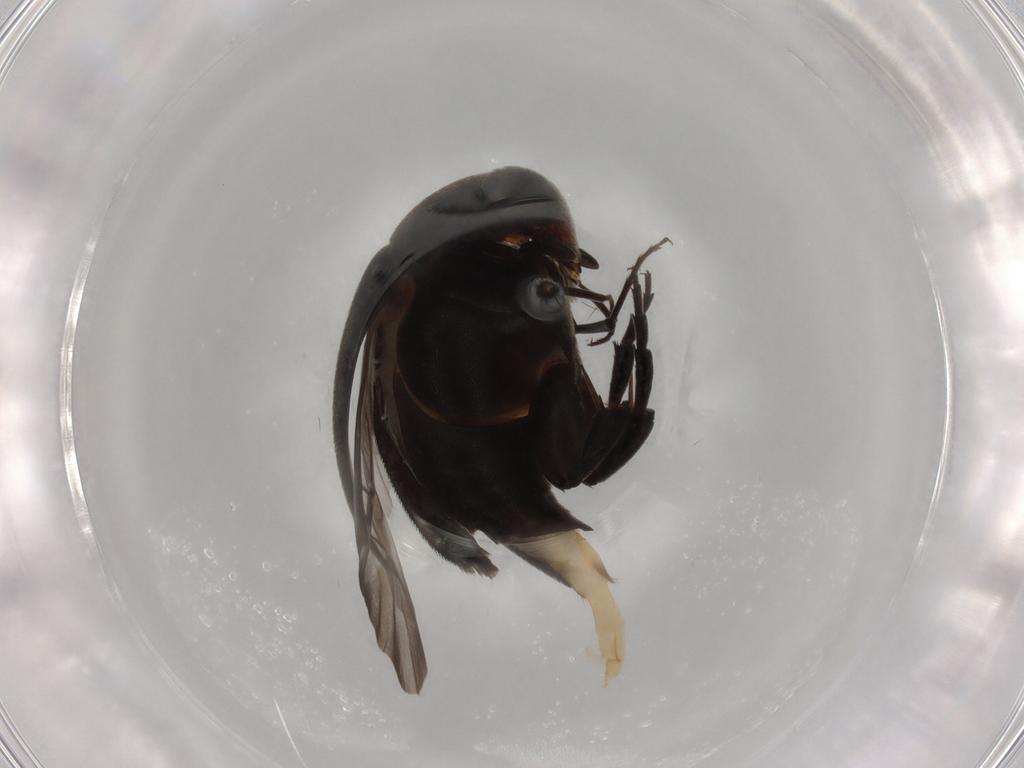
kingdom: Animalia
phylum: Arthropoda
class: Insecta
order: Coleoptera
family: Mordellidae
